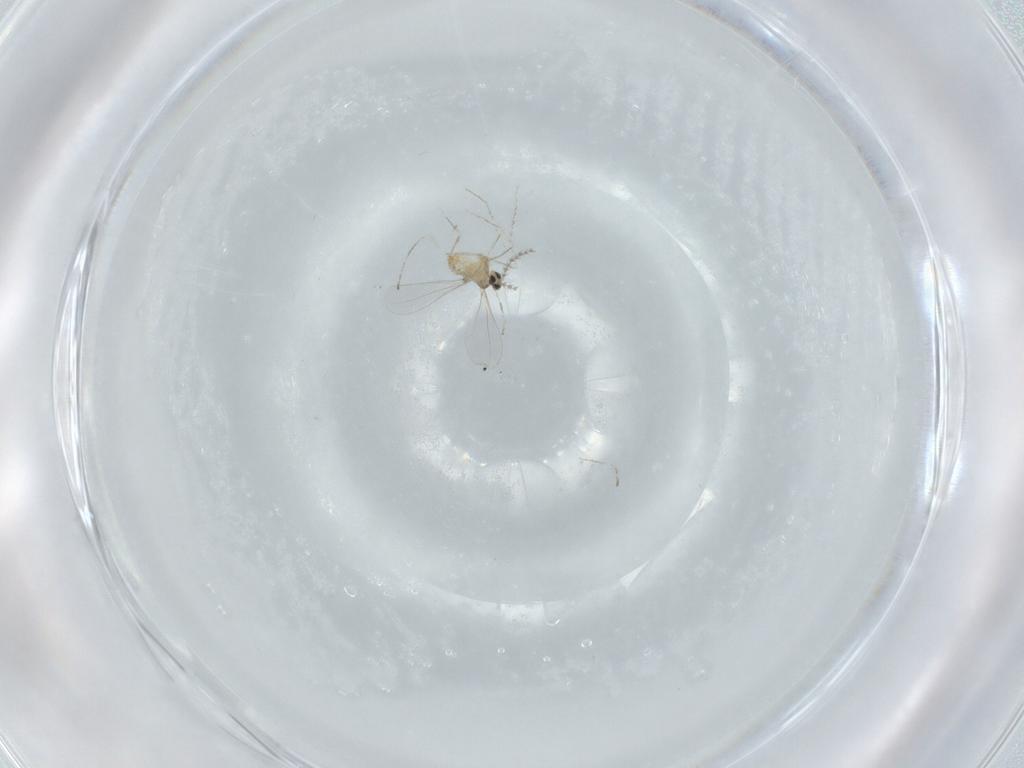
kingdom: Animalia
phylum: Arthropoda
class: Insecta
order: Diptera
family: Cecidomyiidae
